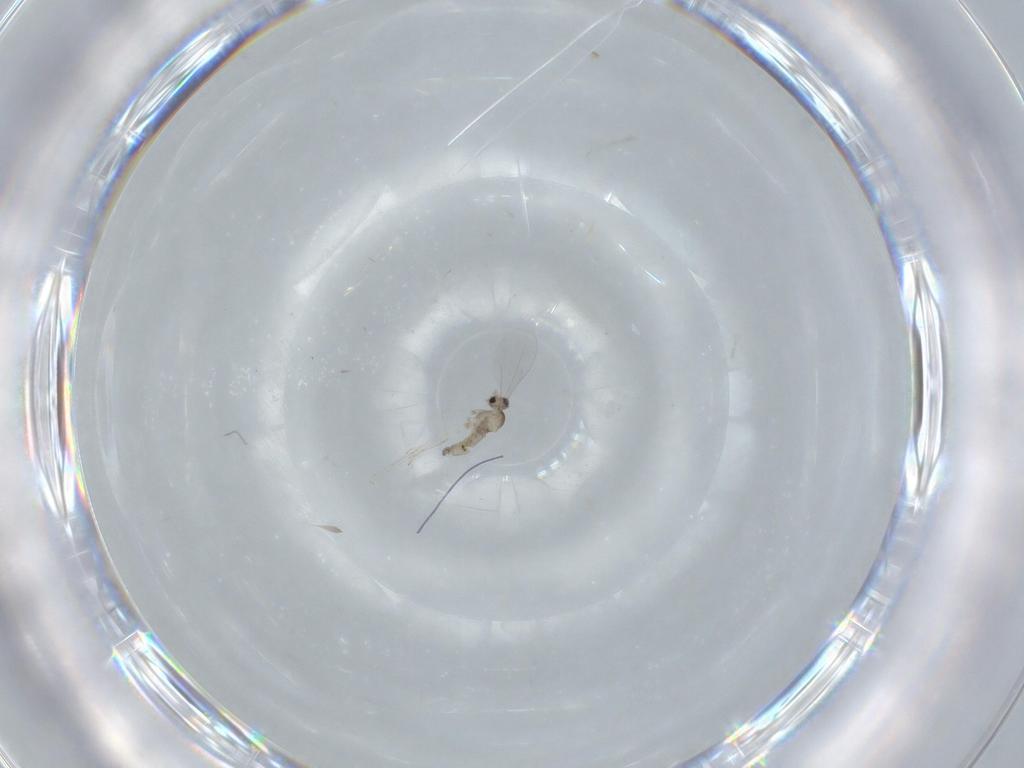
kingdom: Animalia
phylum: Arthropoda
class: Insecta
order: Diptera
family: Cecidomyiidae
